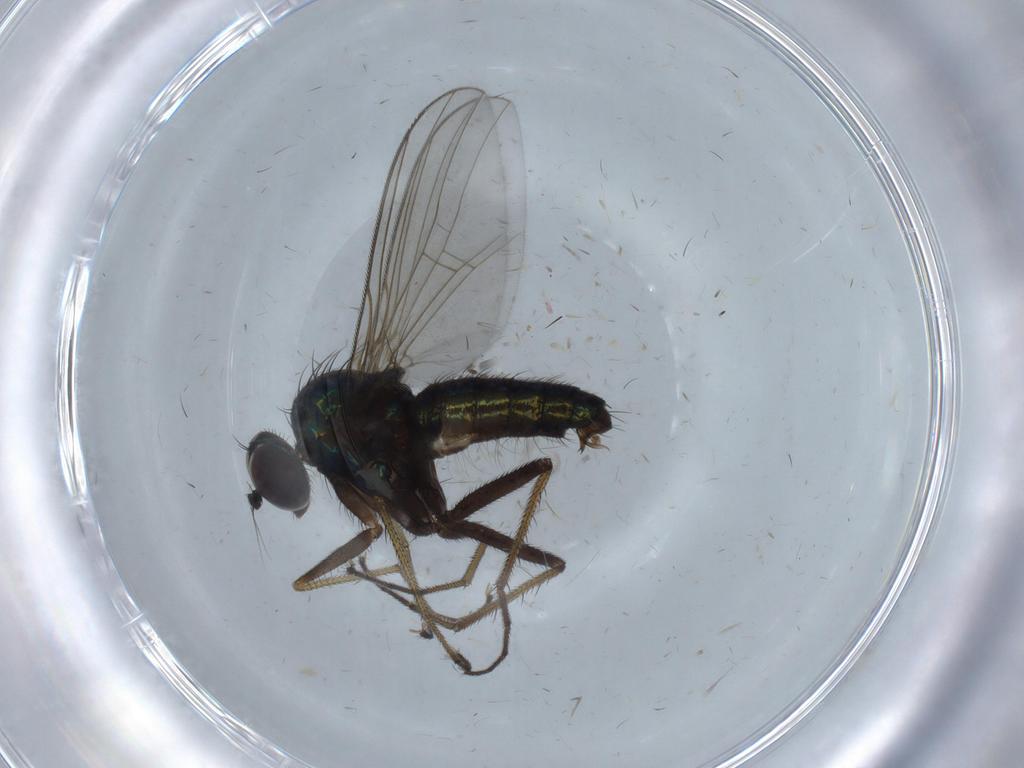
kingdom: Animalia
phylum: Arthropoda
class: Insecta
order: Diptera
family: Dolichopodidae
